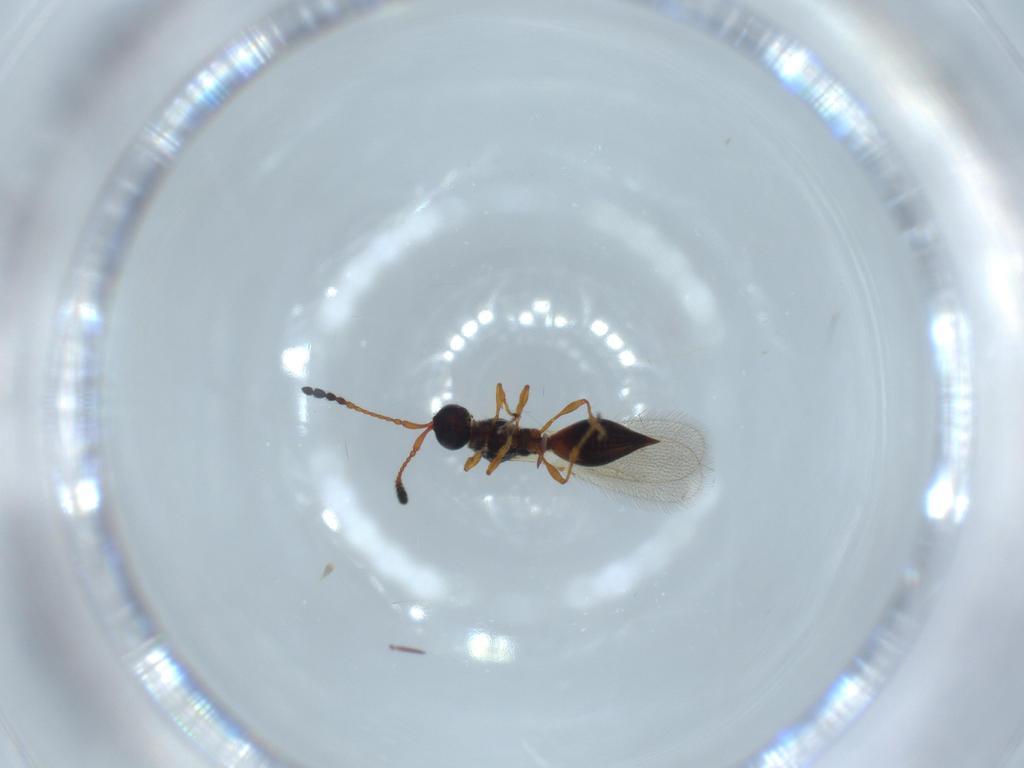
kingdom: Animalia
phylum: Arthropoda
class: Insecta
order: Hymenoptera
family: Diapriidae
